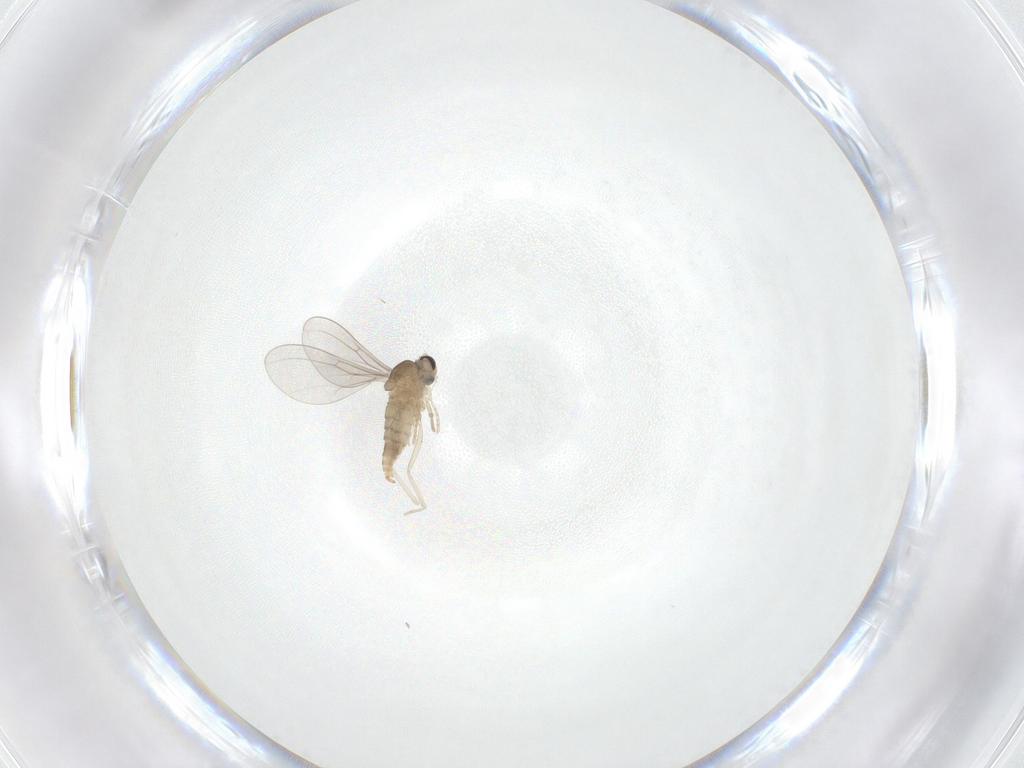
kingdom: Animalia
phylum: Arthropoda
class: Insecta
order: Diptera
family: Cecidomyiidae
